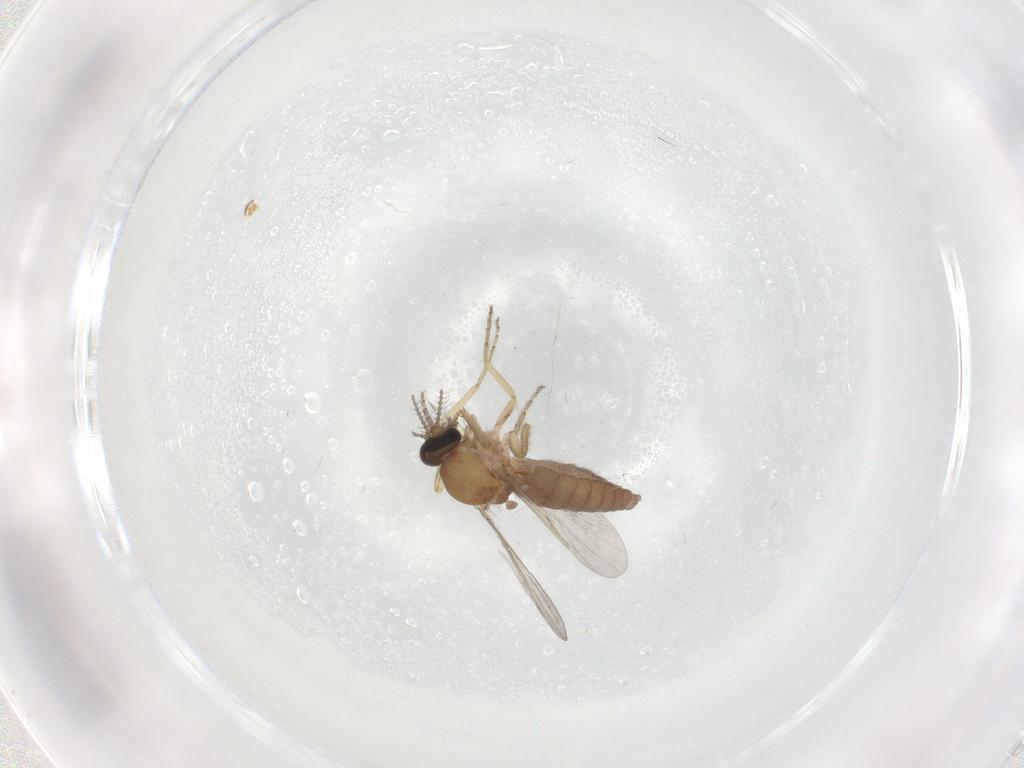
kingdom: Animalia
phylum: Arthropoda
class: Insecta
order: Diptera
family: Ceratopogonidae
